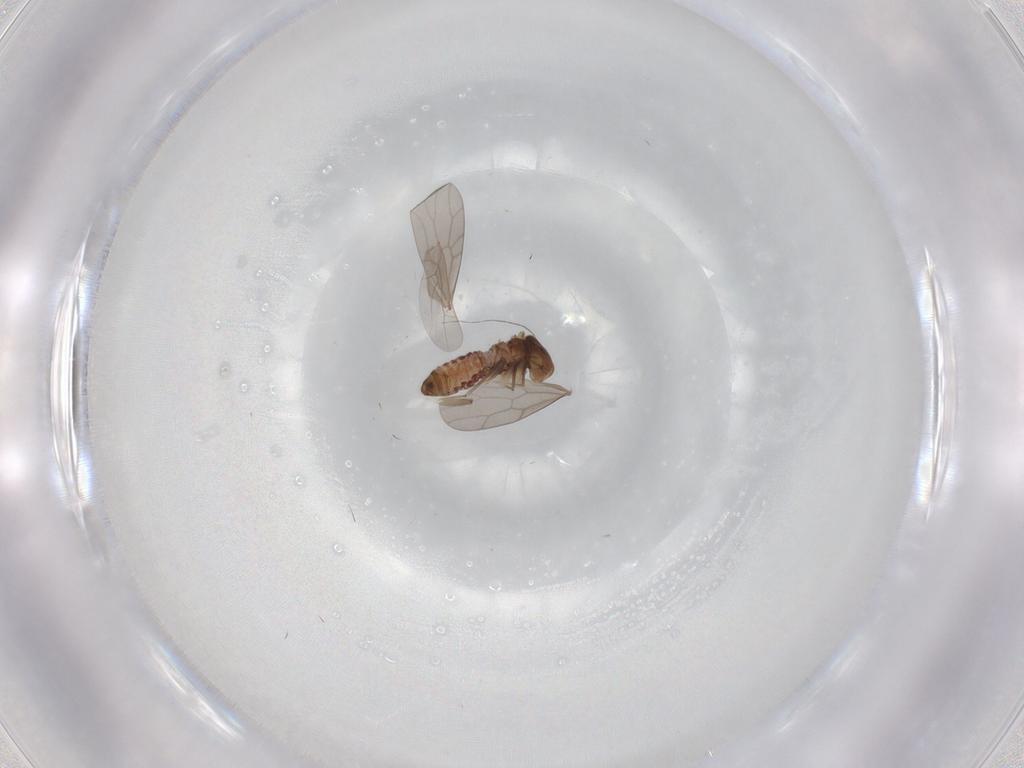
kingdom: Animalia
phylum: Arthropoda
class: Insecta
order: Psocodea
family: Lepidopsocidae
